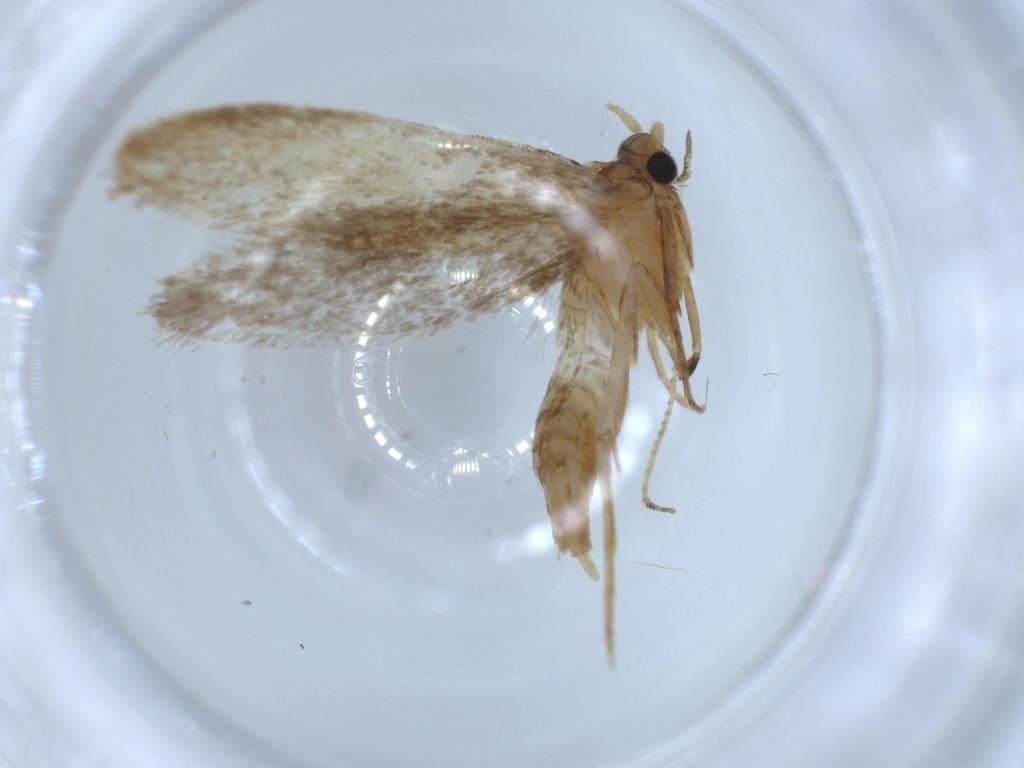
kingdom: Animalia
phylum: Arthropoda
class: Insecta
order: Lepidoptera
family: Tineidae
